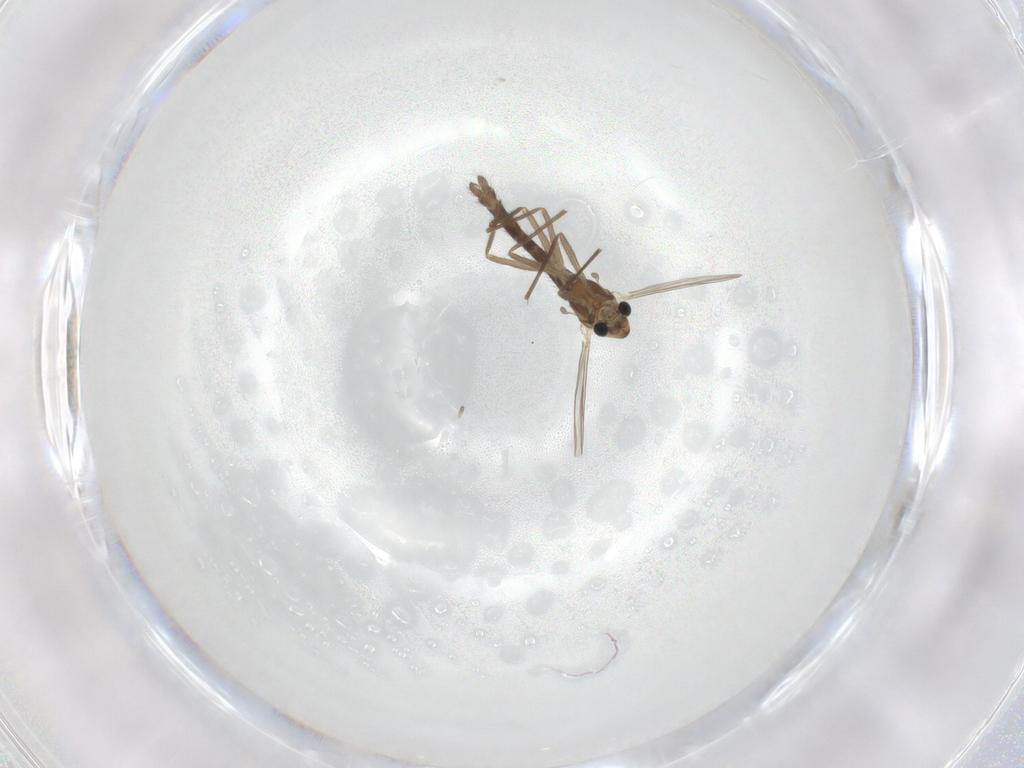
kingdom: Animalia
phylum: Arthropoda
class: Insecta
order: Diptera
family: Chironomidae
